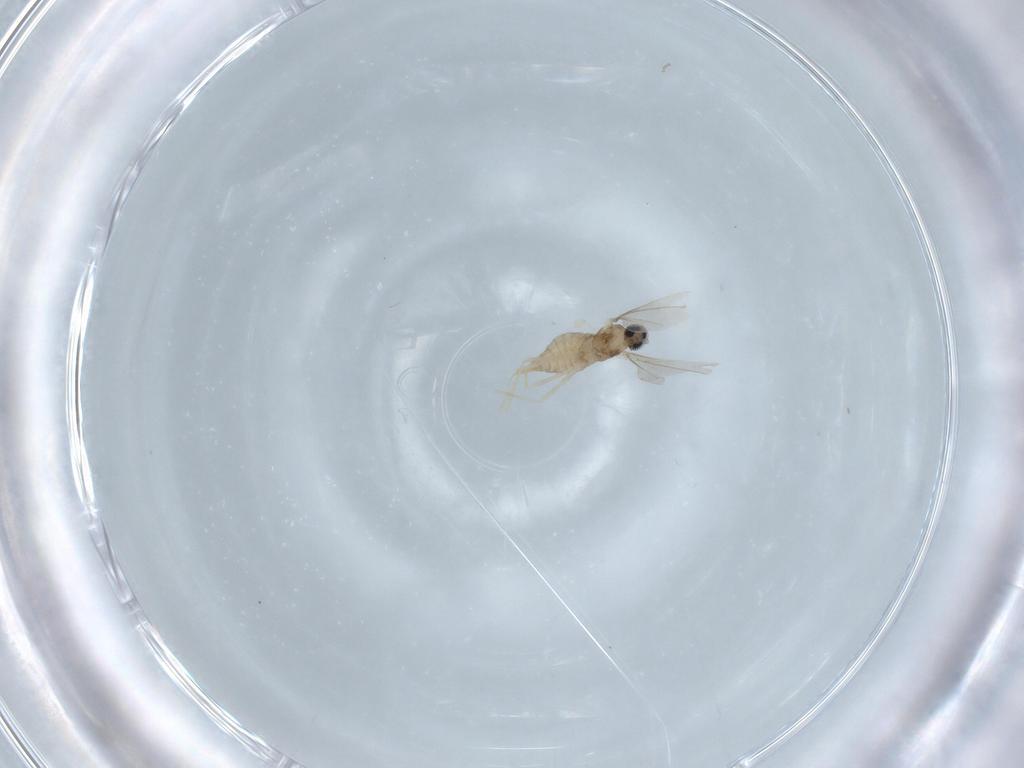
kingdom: Animalia
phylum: Arthropoda
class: Insecta
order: Diptera
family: Cecidomyiidae
